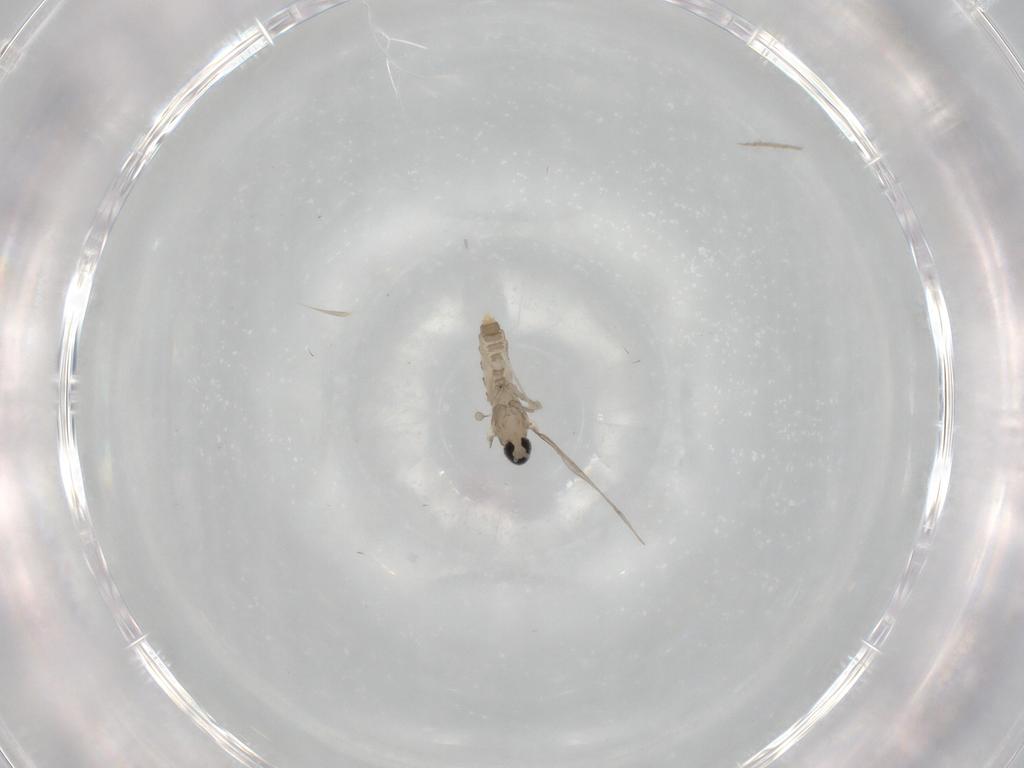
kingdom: Animalia
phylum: Arthropoda
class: Insecta
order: Diptera
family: Cecidomyiidae
